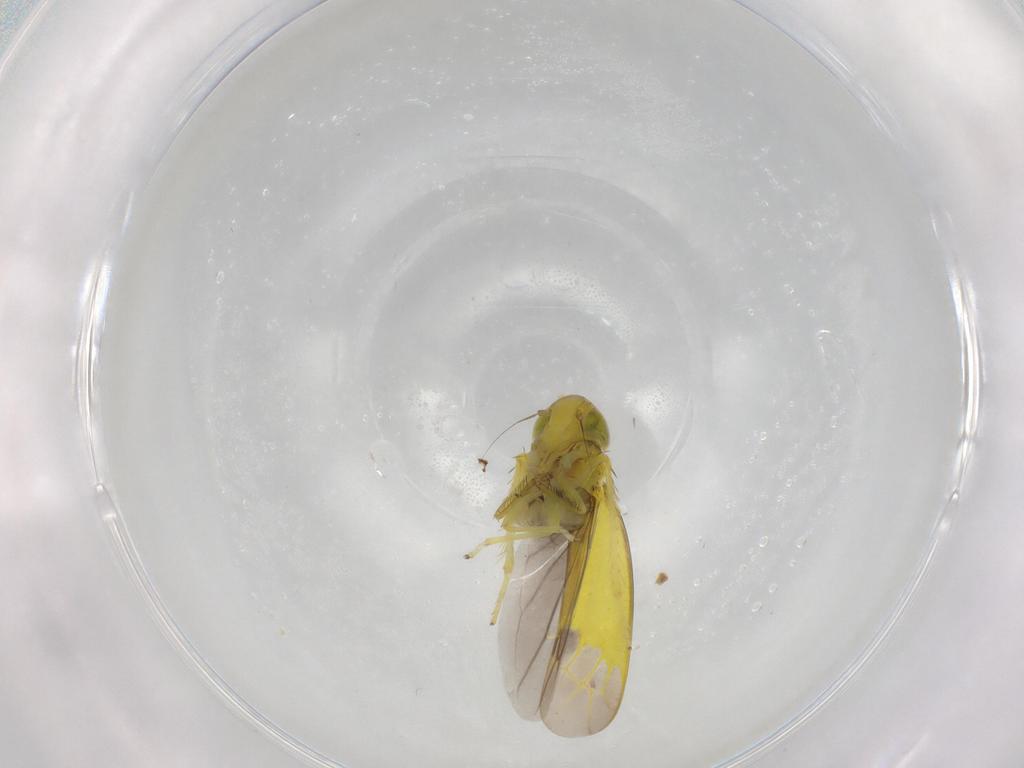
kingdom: Animalia
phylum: Arthropoda
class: Insecta
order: Hemiptera
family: Cicadellidae
